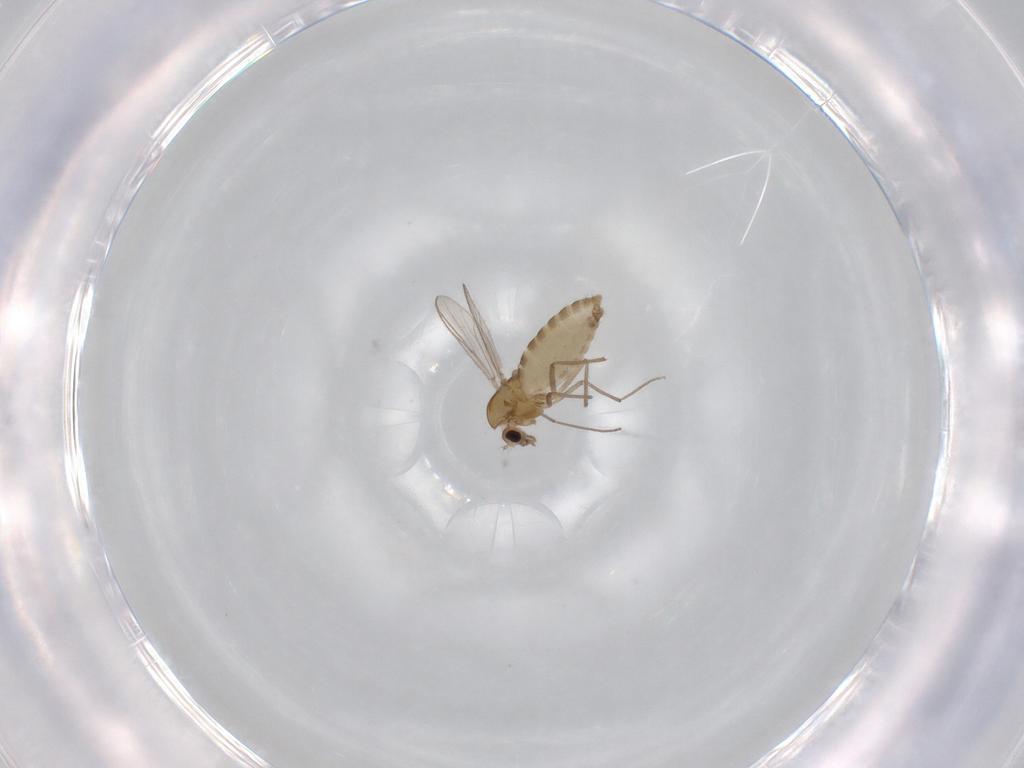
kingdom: Animalia
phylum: Arthropoda
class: Insecta
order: Diptera
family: Chironomidae
